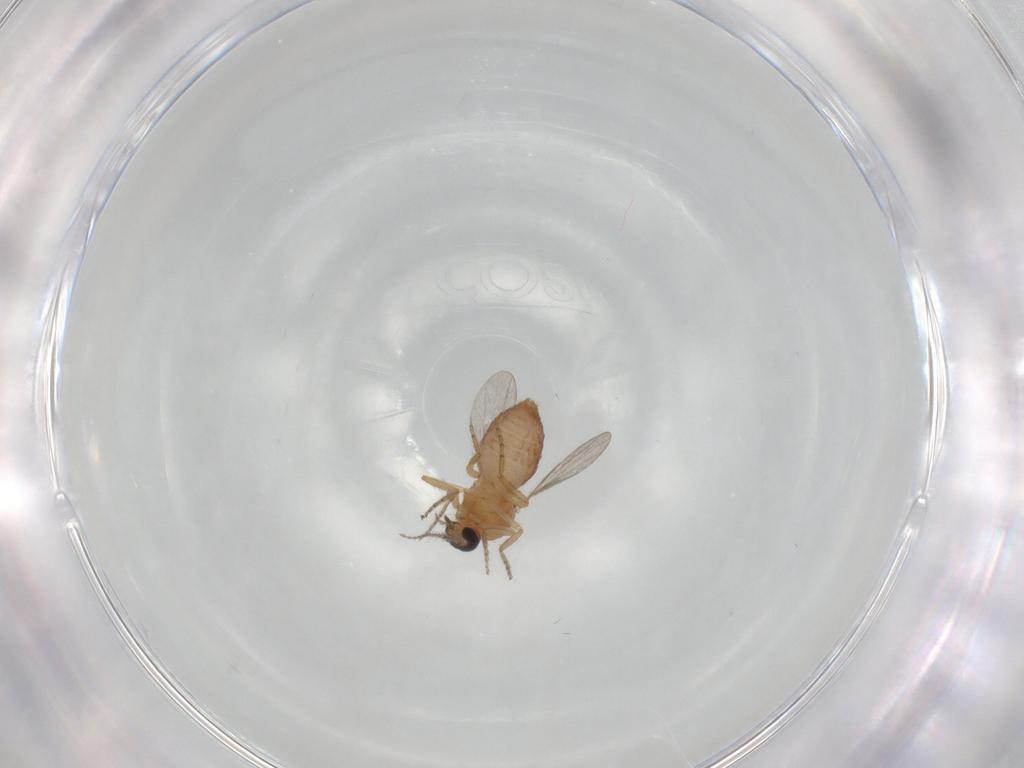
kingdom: Animalia
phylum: Arthropoda
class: Insecta
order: Diptera
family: Ceratopogonidae
